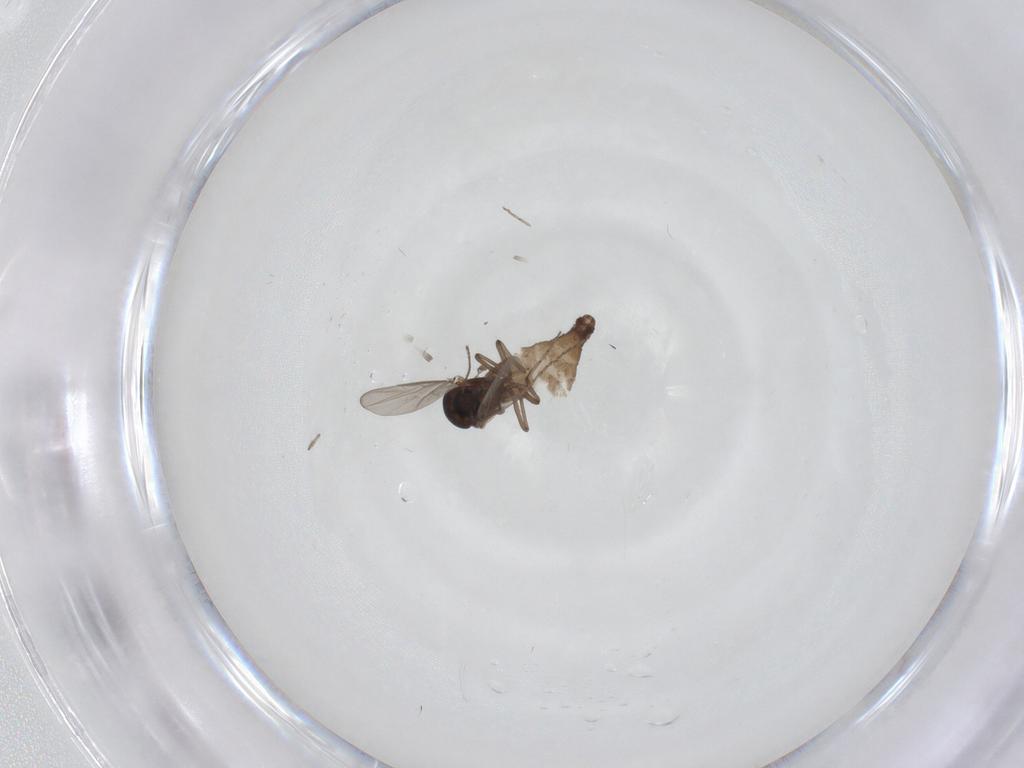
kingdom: Animalia
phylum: Arthropoda
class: Insecta
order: Diptera
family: Ceratopogonidae
